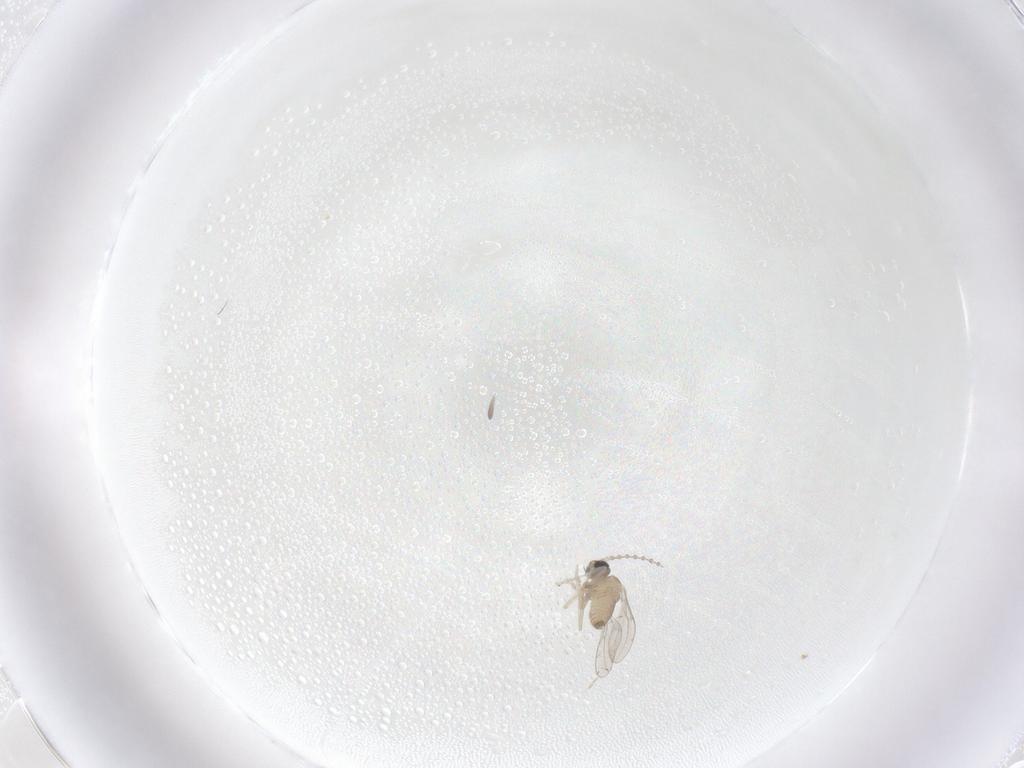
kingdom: Animalia
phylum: Arthropoda
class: Insecta
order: Diptera
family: Cecidomyiidae
